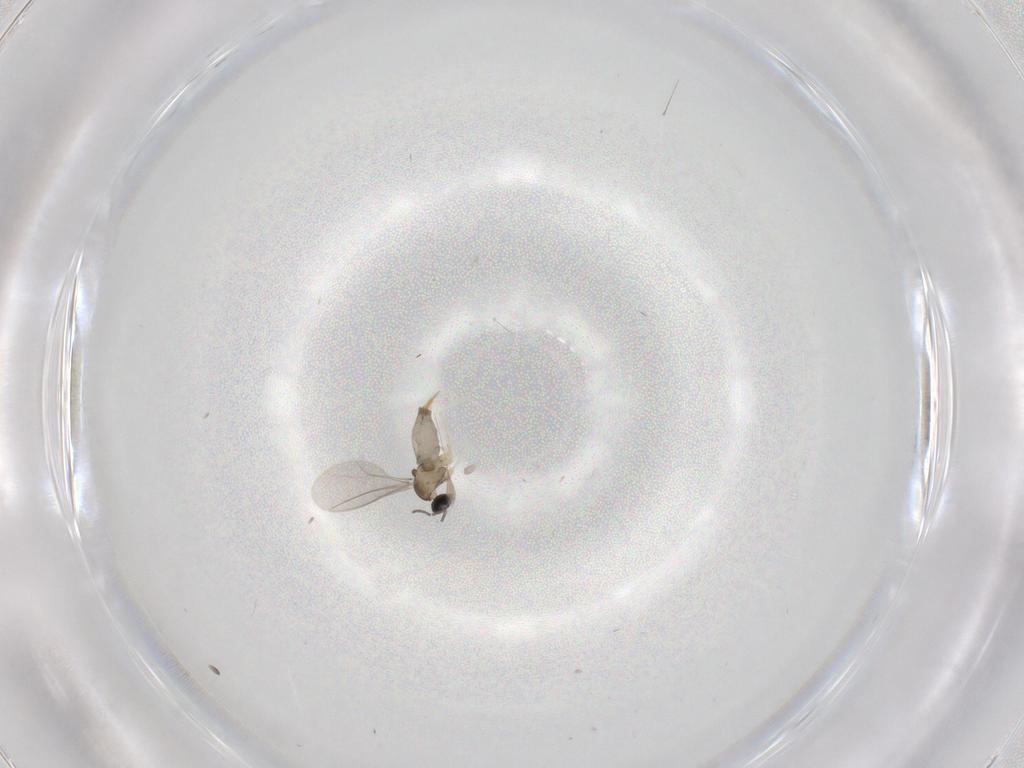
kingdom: Animalia
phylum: Arthropoda
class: Insecta
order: Diptera
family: Cecidomyiidae
